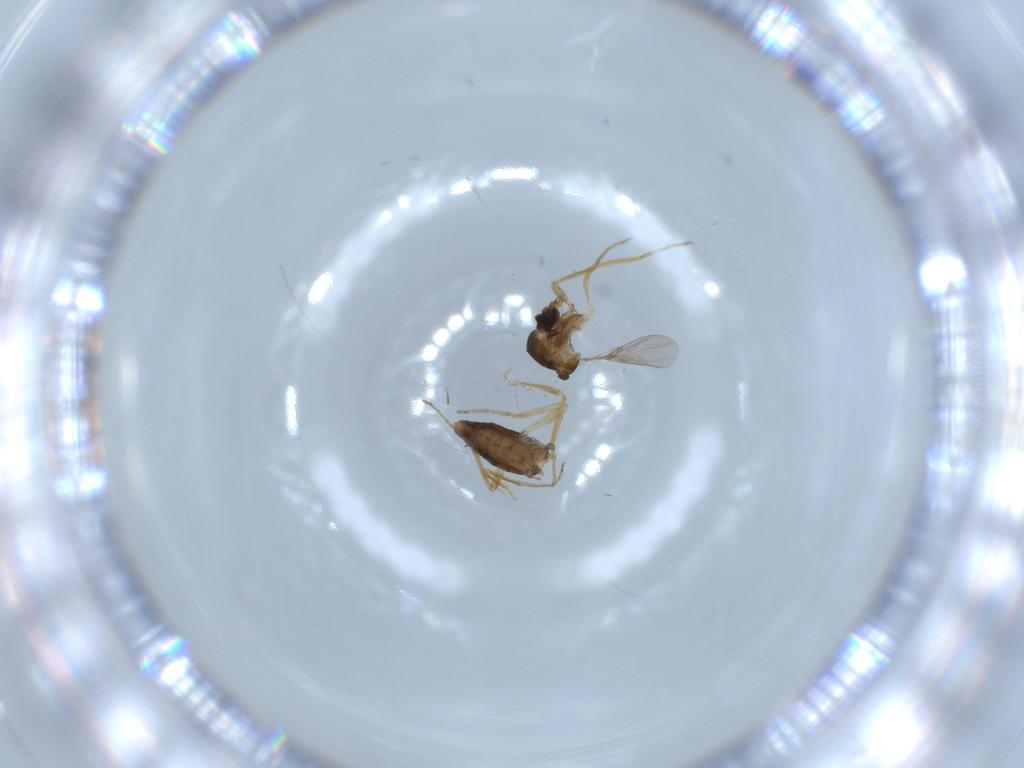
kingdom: Animalia
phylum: Arthropoda
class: Insecta
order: Diptera
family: Ceratopogonidae
